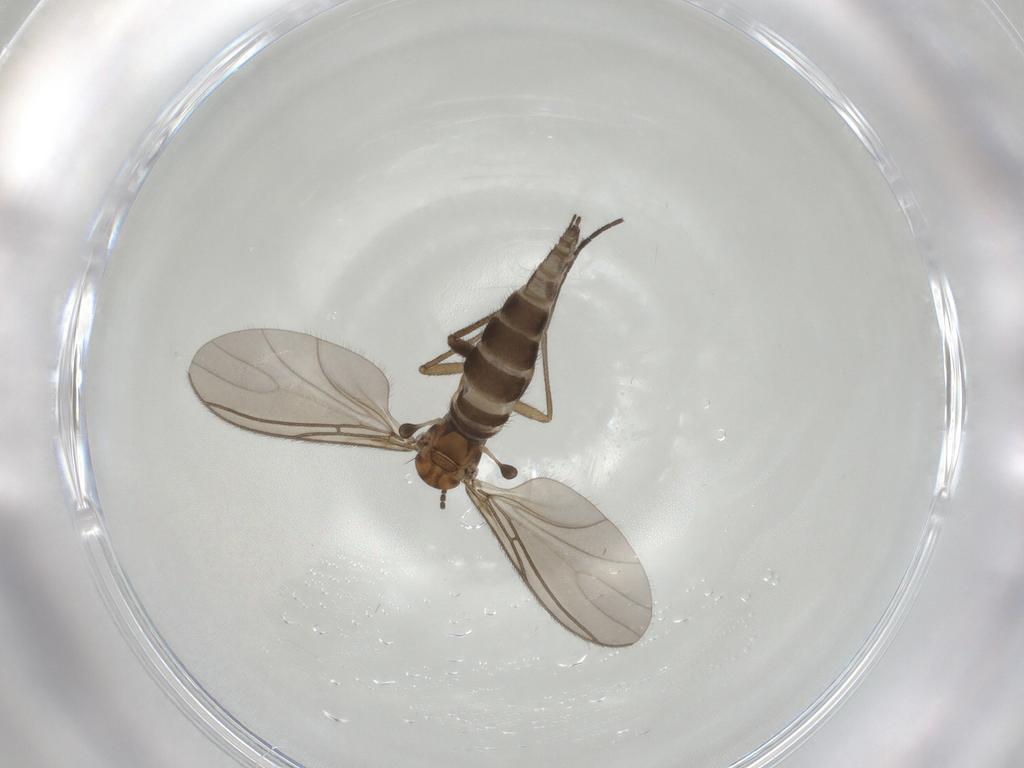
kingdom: Animalia
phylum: Arthropoda
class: Insecta
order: Diptera
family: Sciaridae
